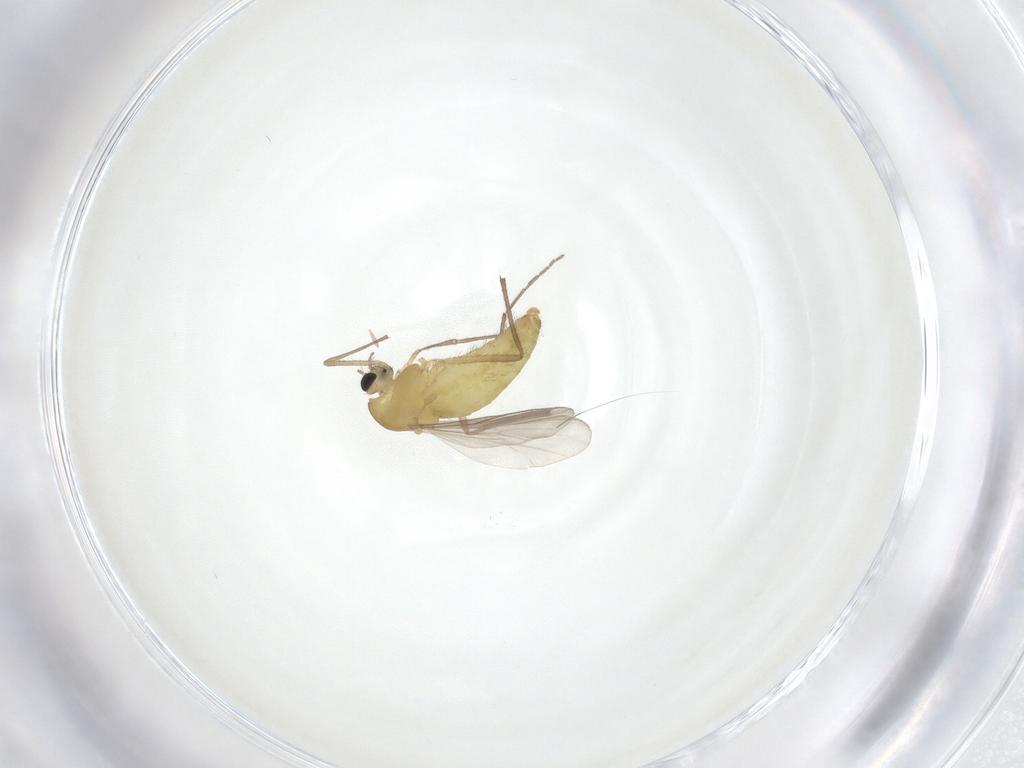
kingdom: Animalia
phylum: Arthropoda
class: Insecta
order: Diptera
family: Chironomidae
